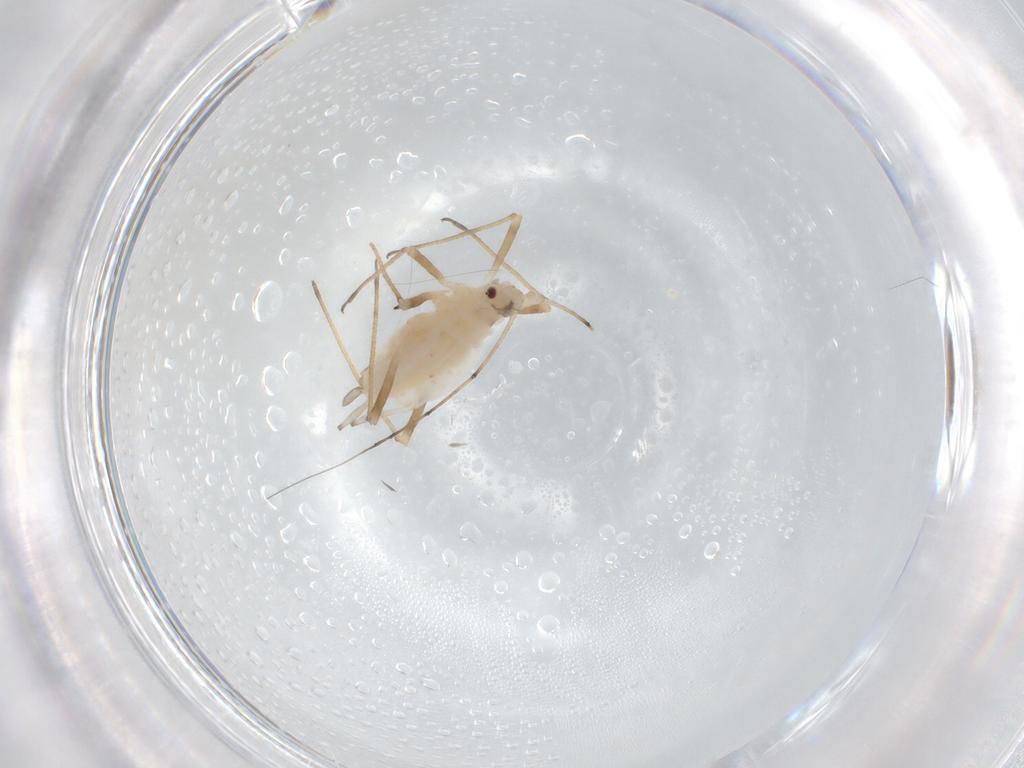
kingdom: Animalia
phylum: Arthropoda
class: Insecta
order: Hemiptera
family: Aphididae
